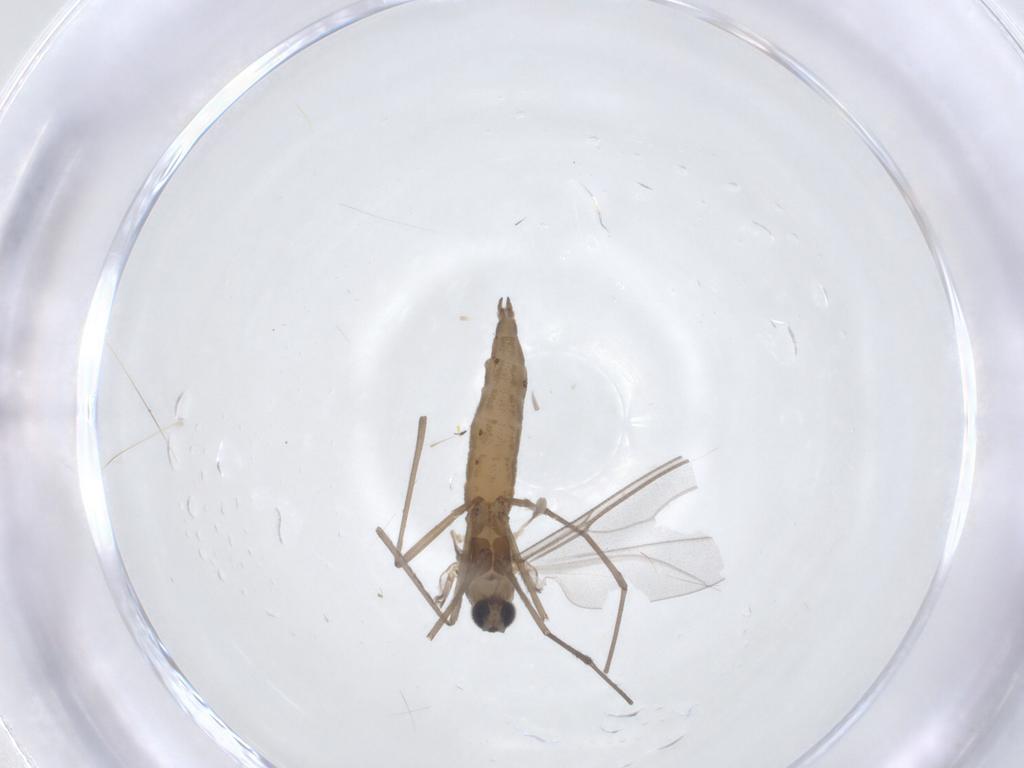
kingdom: Animalia
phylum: Arthropoda
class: Insecta
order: Diptera
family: Cecidomyiidae
